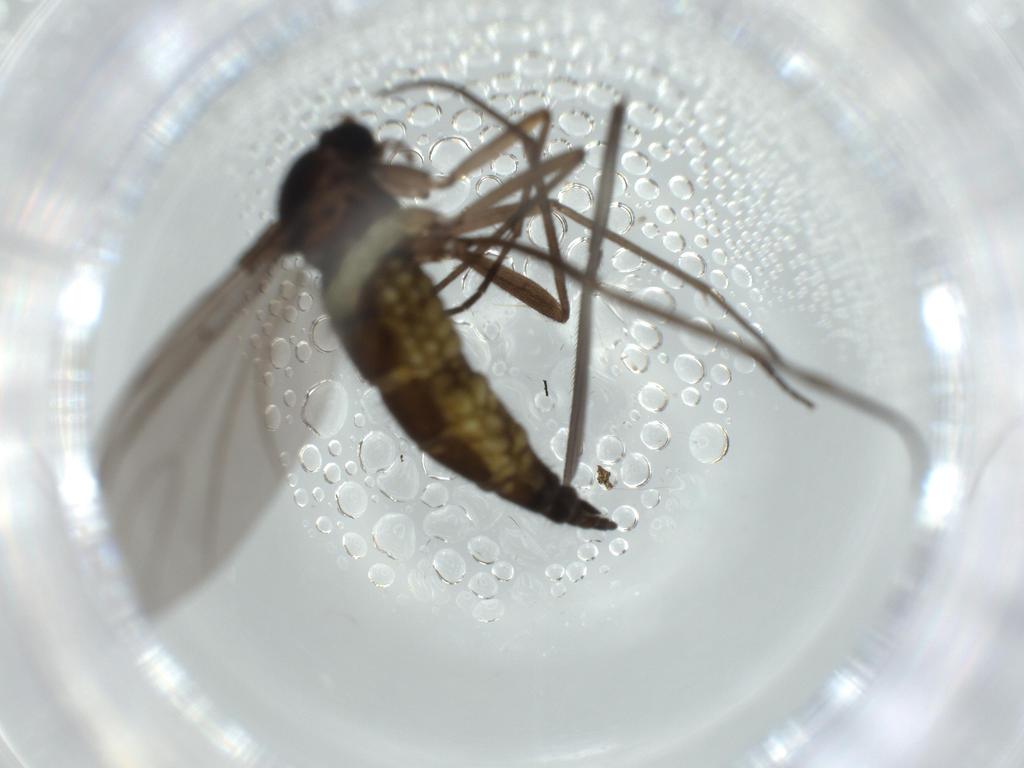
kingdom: Animalia
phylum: Arthropoda
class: Insecta
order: Diptera
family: Sciaridae
